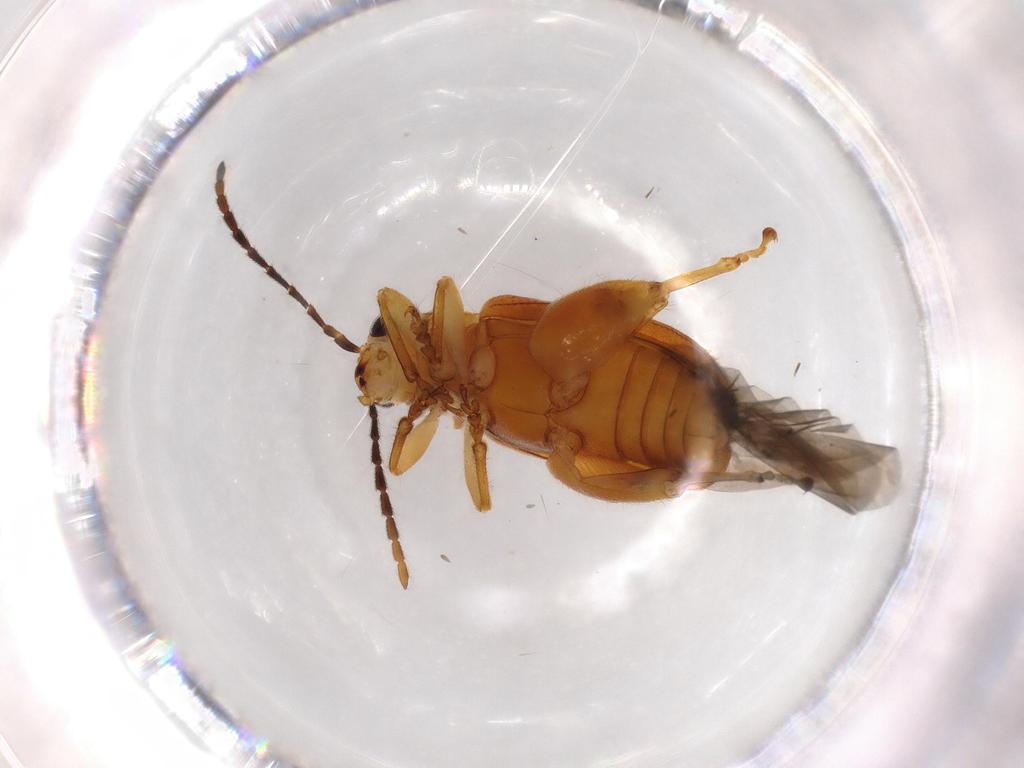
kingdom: Animalia
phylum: Arthropoda
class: Insecta
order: Coleoptera
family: Chrysomelidae
